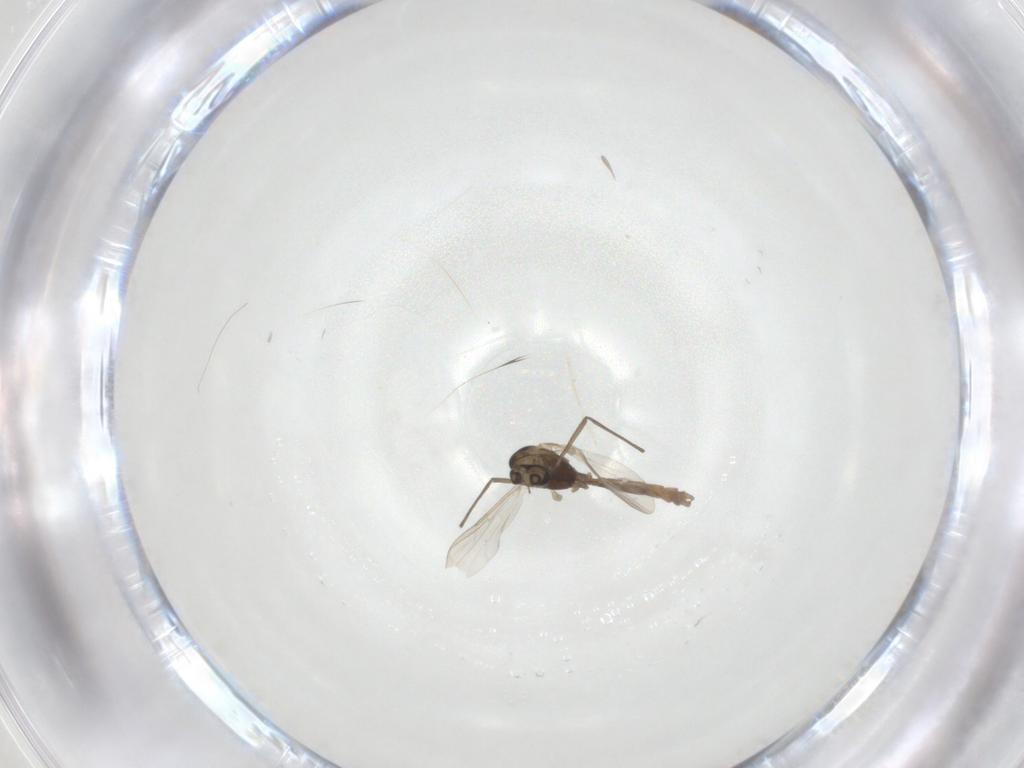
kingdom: Animalia
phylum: Arthropoda
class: Insecta
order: Diptera
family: Chironomidae
